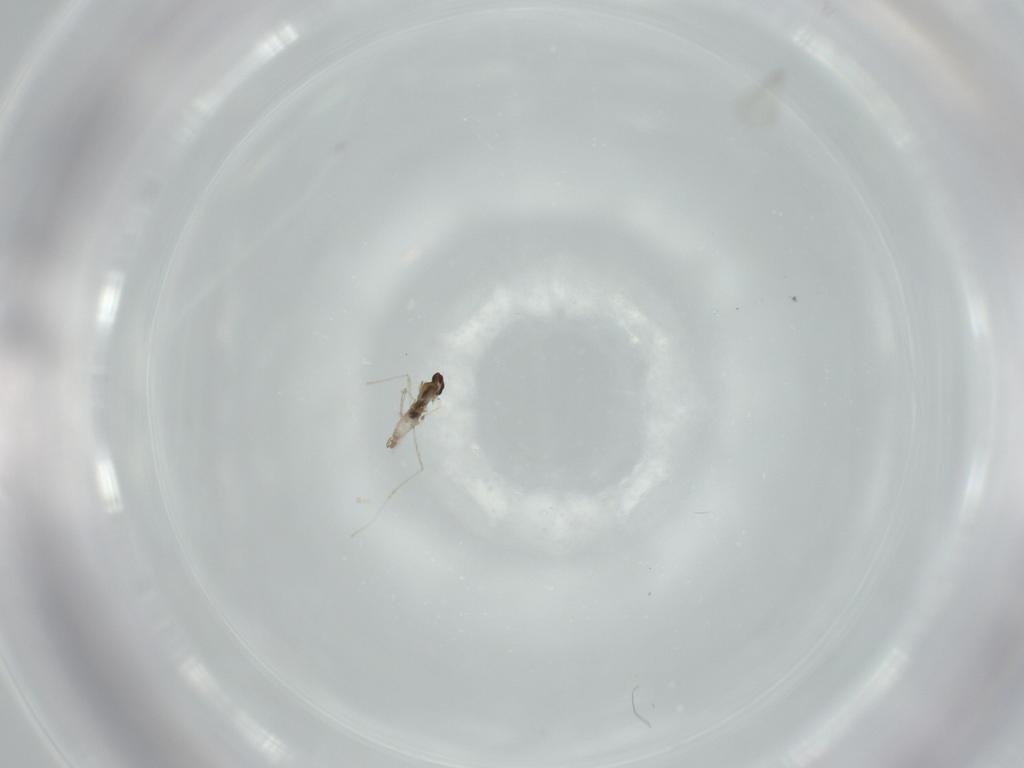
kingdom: Animalia
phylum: Arthropoda
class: Insecta
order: Diptera
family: Cecidomyiidae
